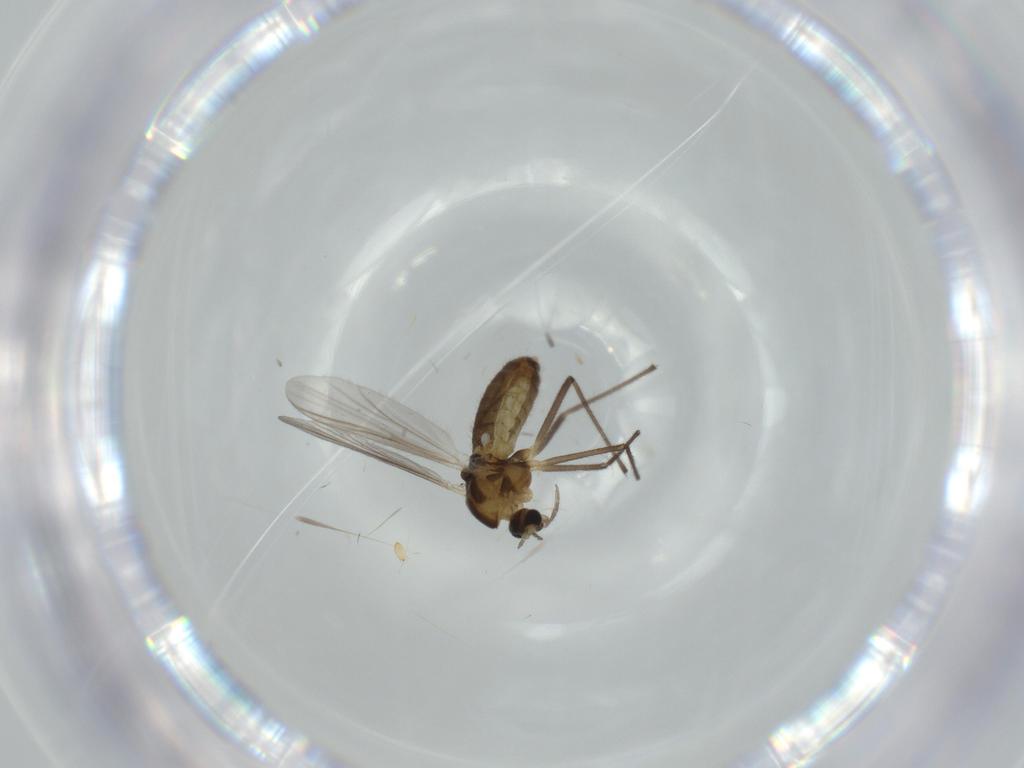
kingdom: Animalia
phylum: Arthropoda
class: Insecta
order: Diptera
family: Chironomidae
